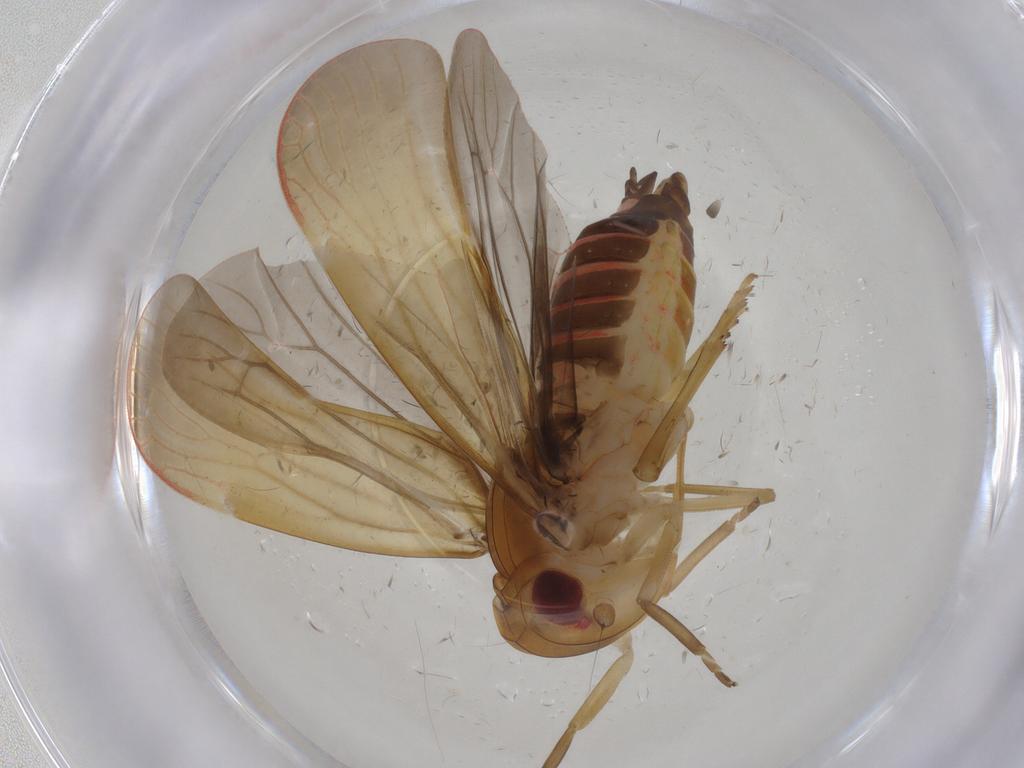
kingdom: Animalia
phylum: Arthropoda
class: Insecta
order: Hemiptera
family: Achilidae
